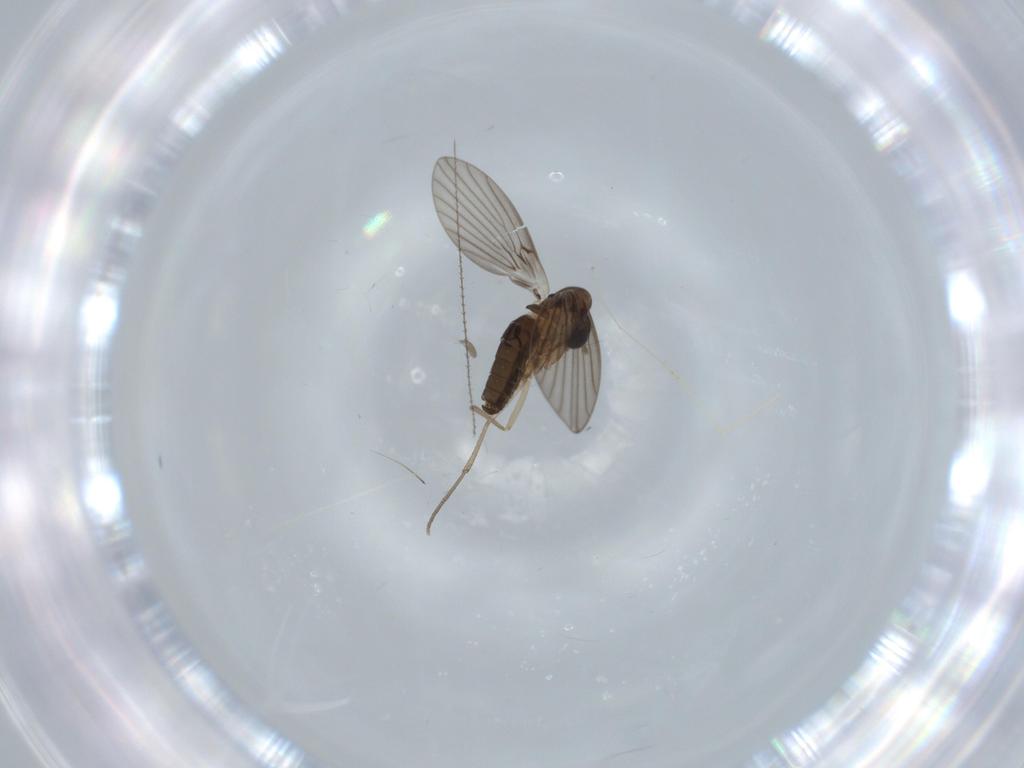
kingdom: Animalia
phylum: Arthropoda
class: Insecta
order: Diptera
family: Psychodidae
